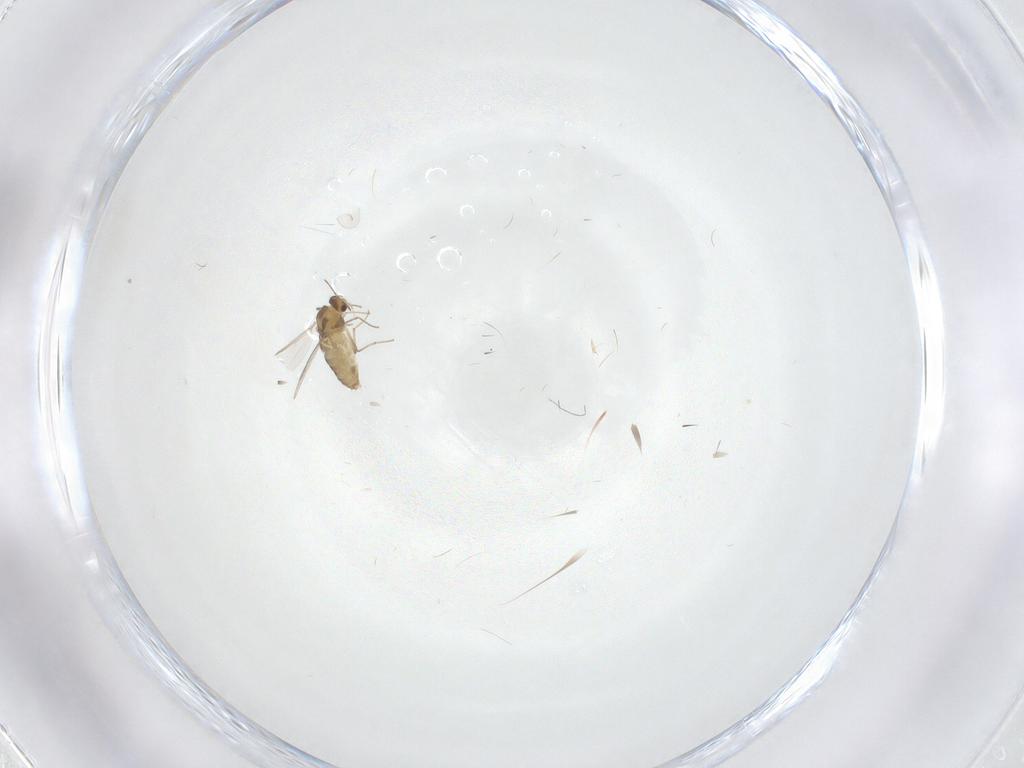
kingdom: Animalia
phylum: Arthropoda
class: Insecta
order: Diptera
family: Chironomidae
